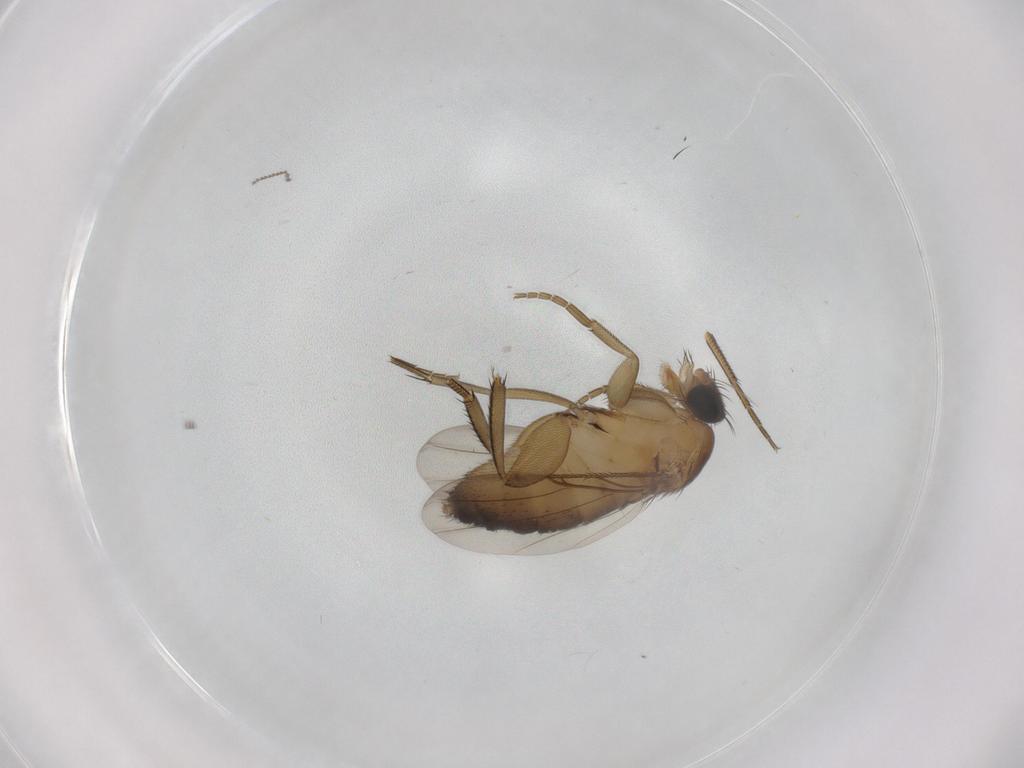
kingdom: Animalia
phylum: Arthropoda
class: Insecta
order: Diptera
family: Phoridae
